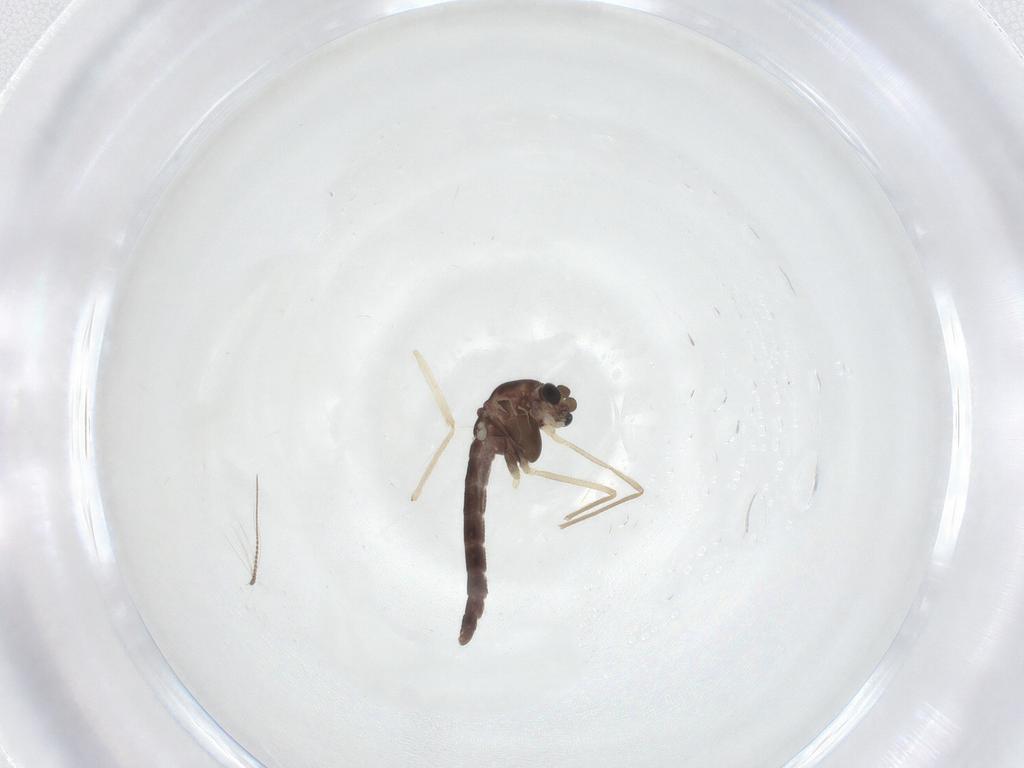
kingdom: Animalia
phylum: Arthropoda
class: Insecta
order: Diptera
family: Chironomidae
